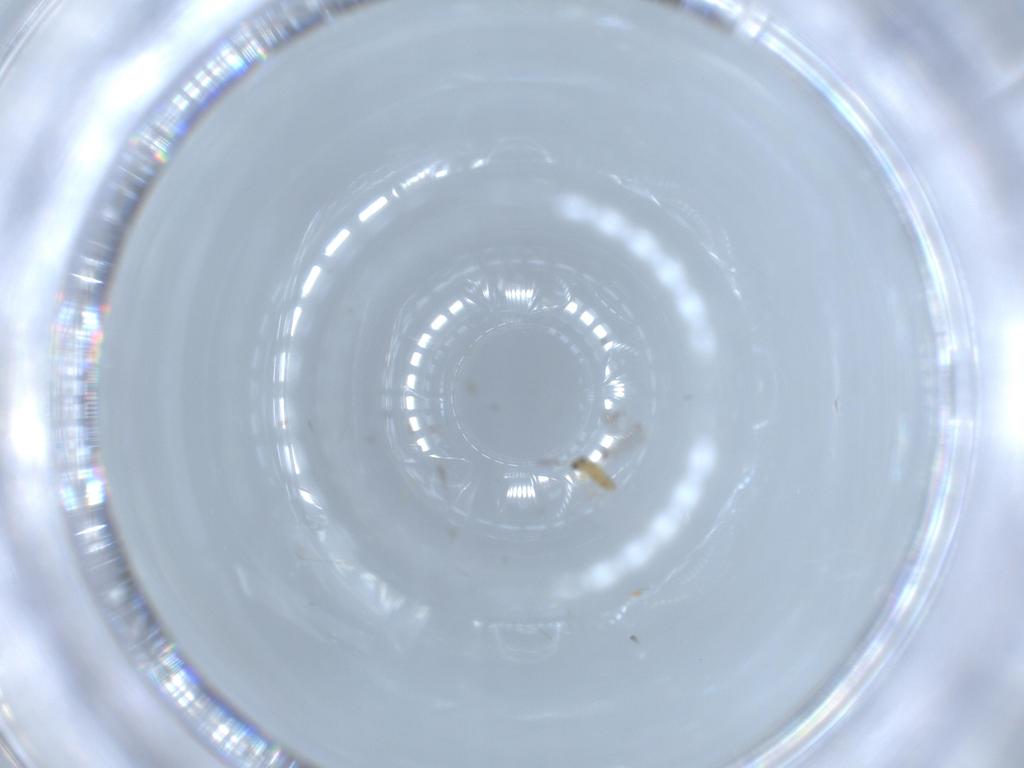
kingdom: Animalia
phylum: Arthropoda
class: Insecta
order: Hymenoptera
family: Mymaridae
